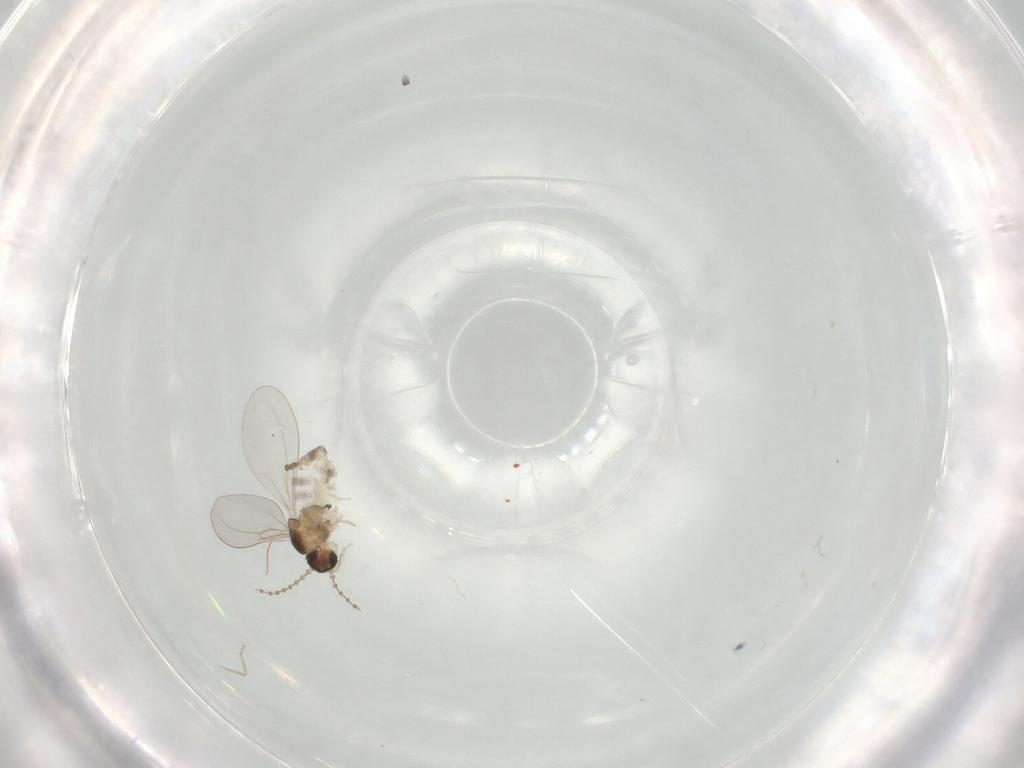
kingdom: Animalia
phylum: Arthropoda
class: Insecta
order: Diptera
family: Cecidomyiidae
